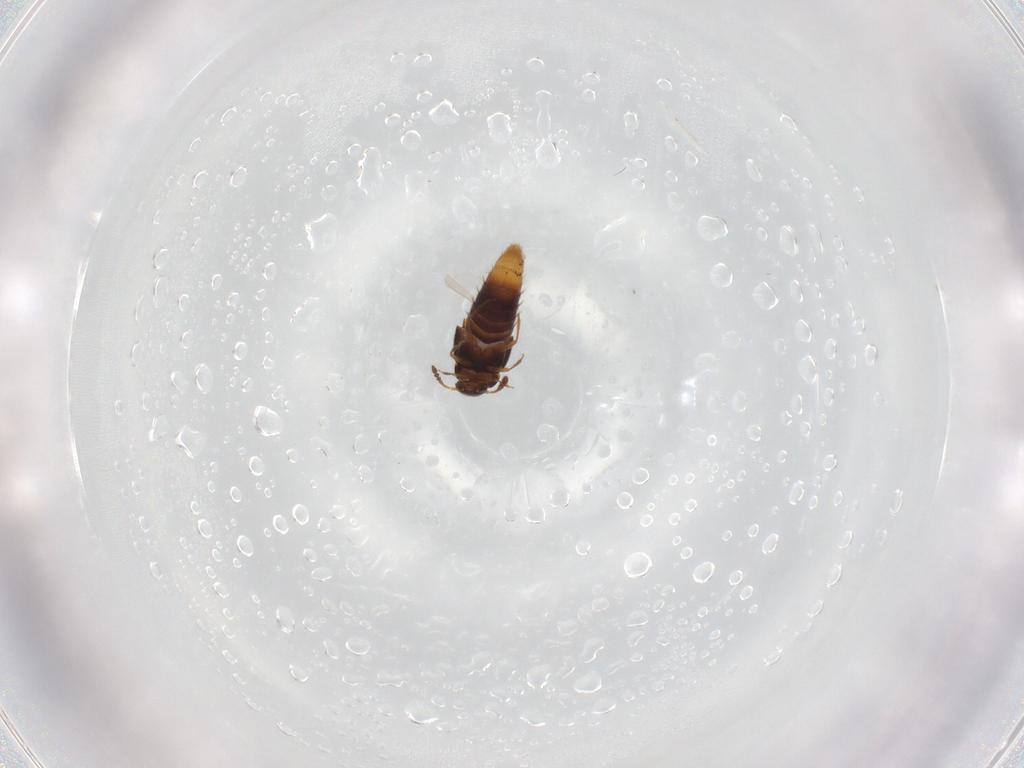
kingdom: Animalia
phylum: Arthropoda
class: Insecta
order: Coleoptera
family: Staphylinidae
